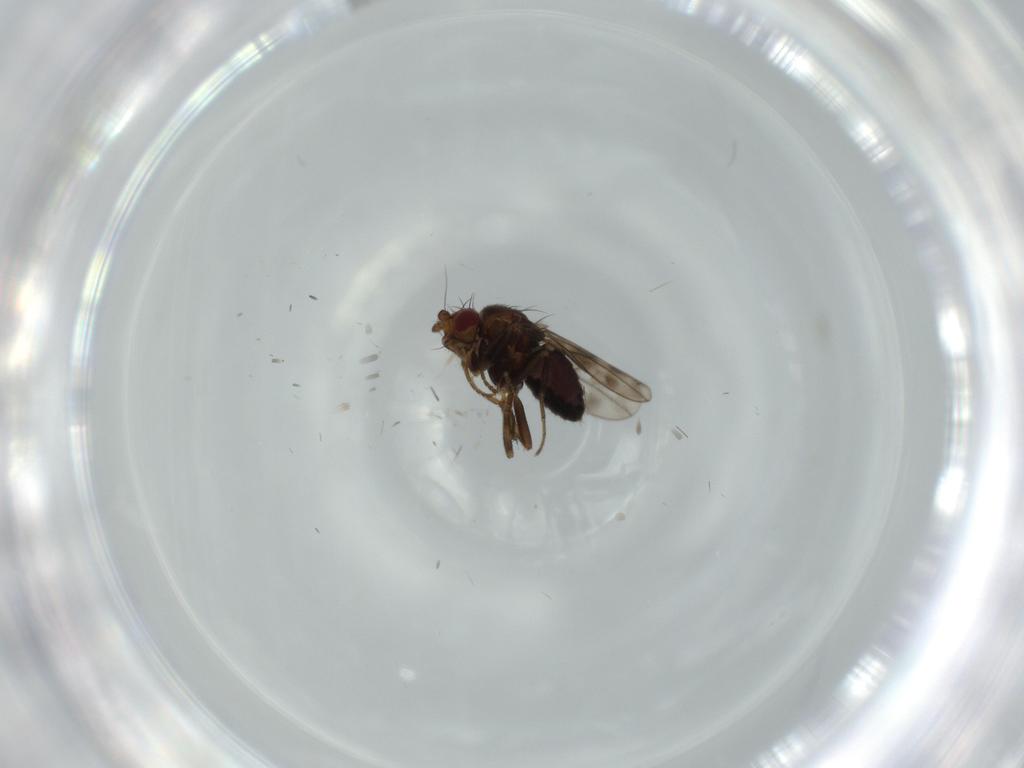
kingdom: Animalia
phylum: Arthropoda
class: Insecta
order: Diptera
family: Sphaeroceridae
